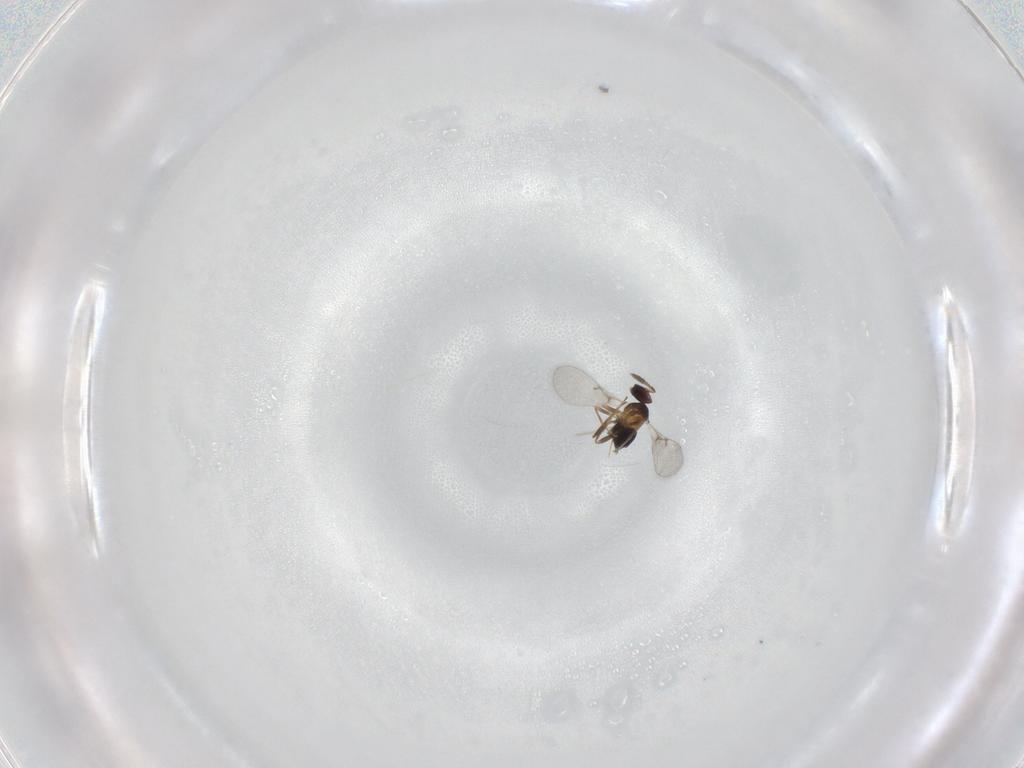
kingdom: Animalia
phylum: Arthropoda
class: Insecta
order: Hymenoptera
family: Trichogrammatidae
